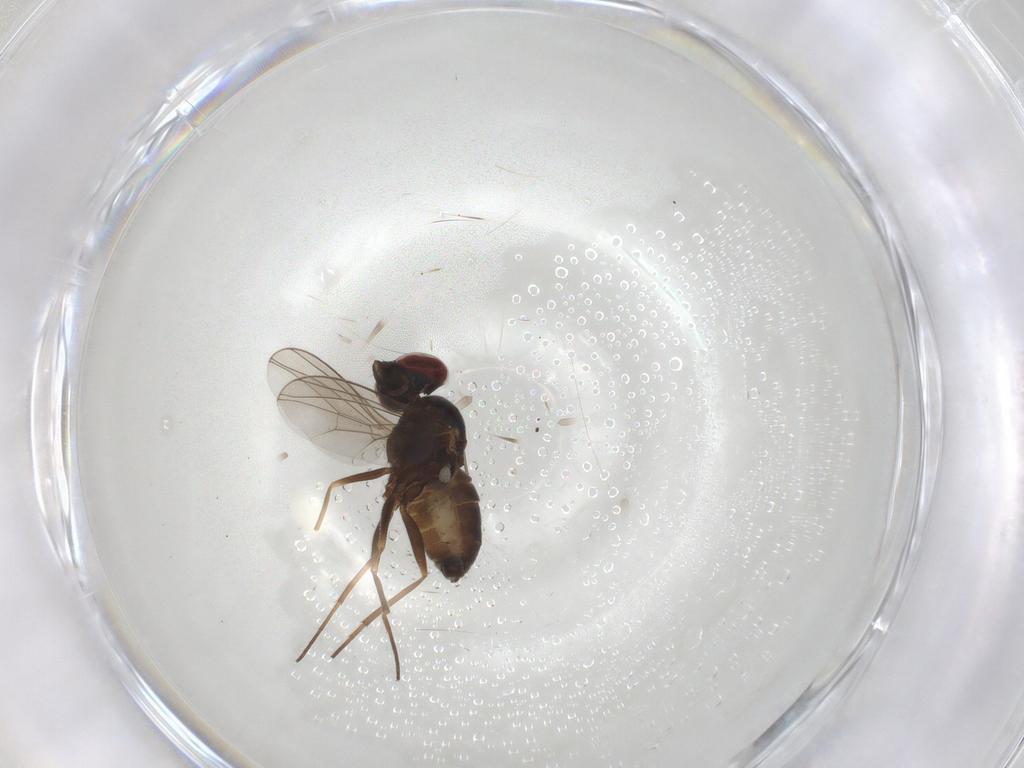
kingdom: Animalia
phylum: Arthropoda
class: Insecta
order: Diptera
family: Dolichopodidae
